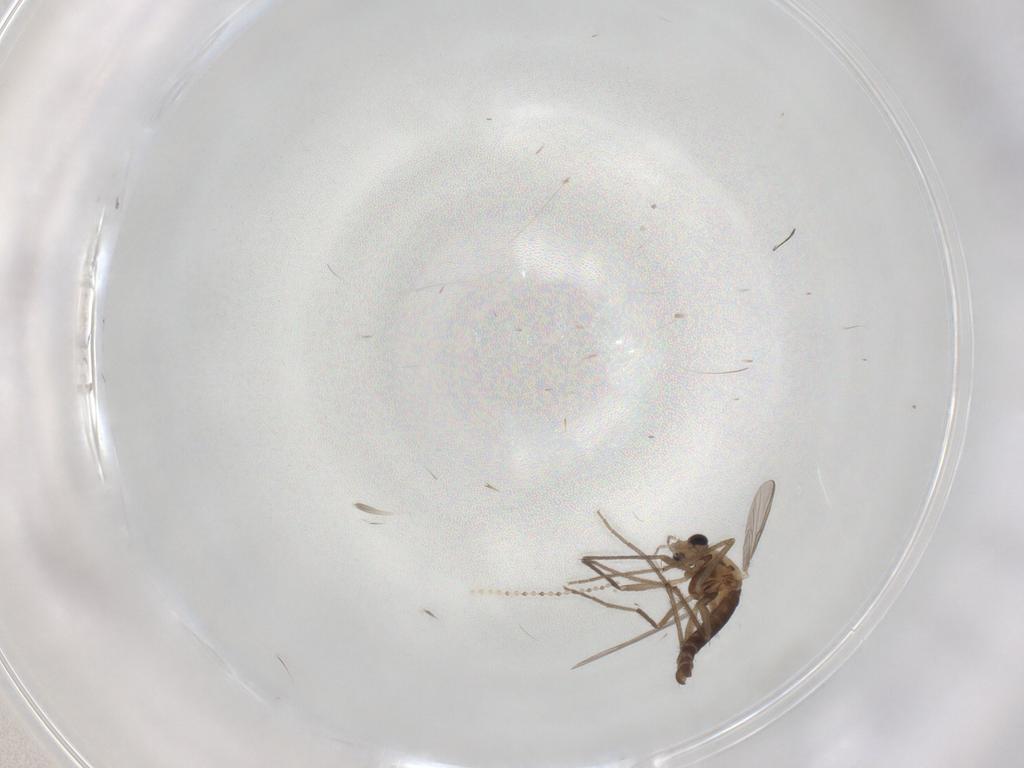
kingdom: Animalia
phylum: Arthropoda
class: Insecta
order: Diptera
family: Chironomidae
